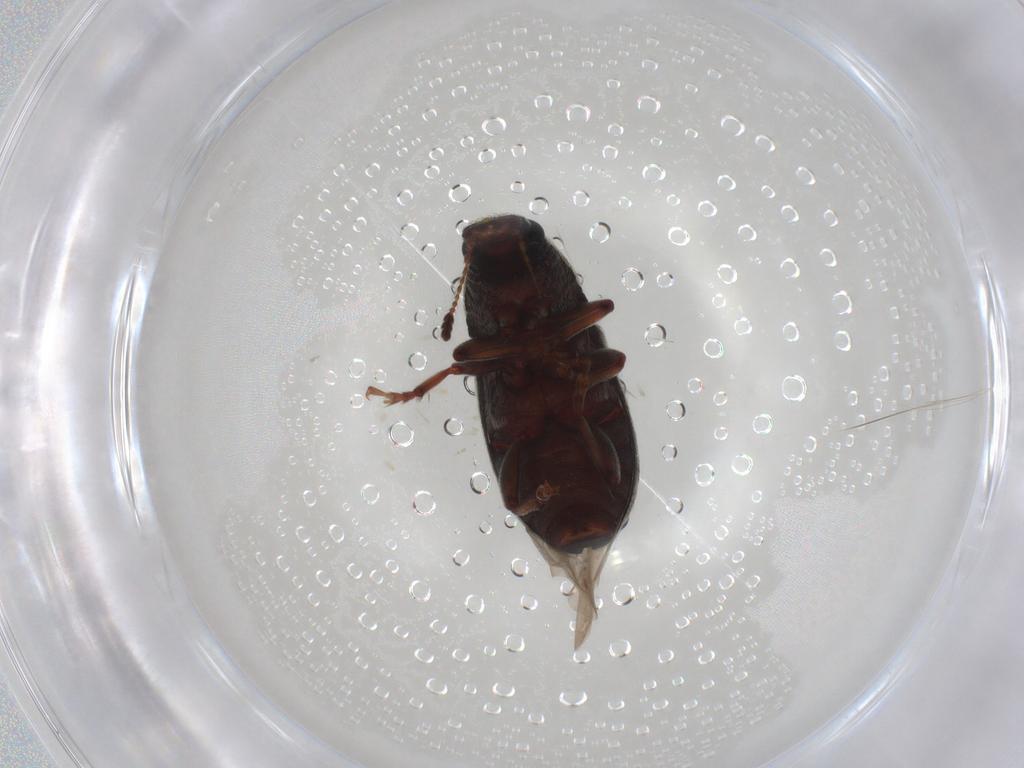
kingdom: Animalia
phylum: Arthropoda
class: Insecta
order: Coleoptera
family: Anthribidae
